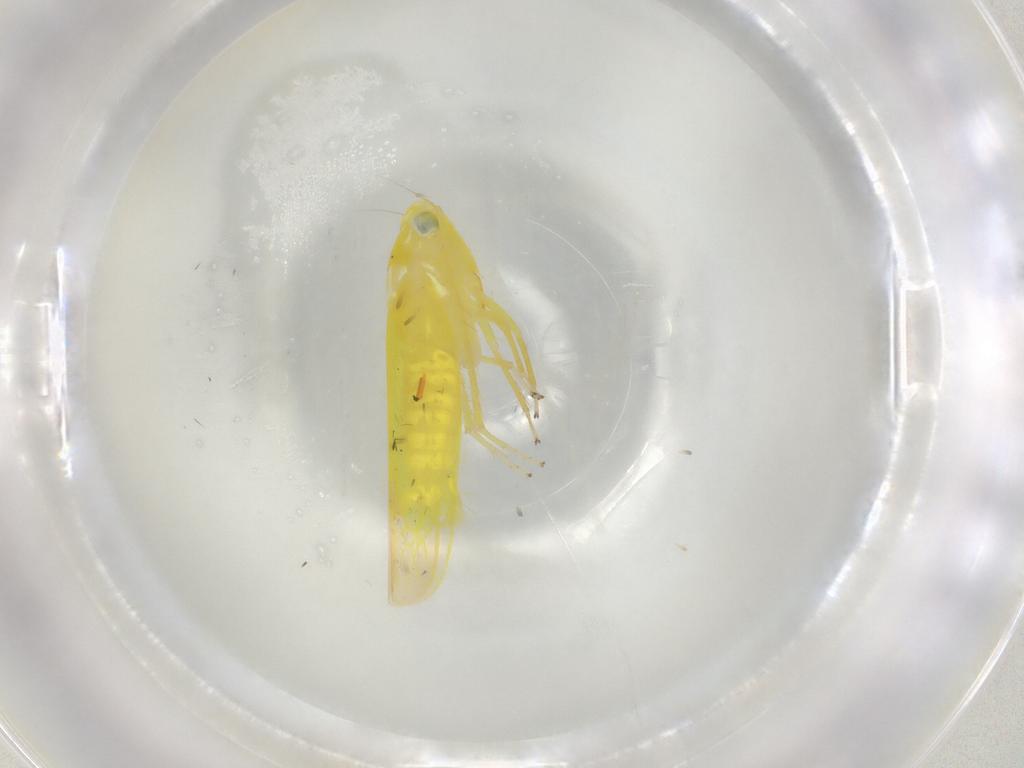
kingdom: Animalia
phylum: Arthropoda
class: Insecta
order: Hemiptera
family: Cicadellidae
